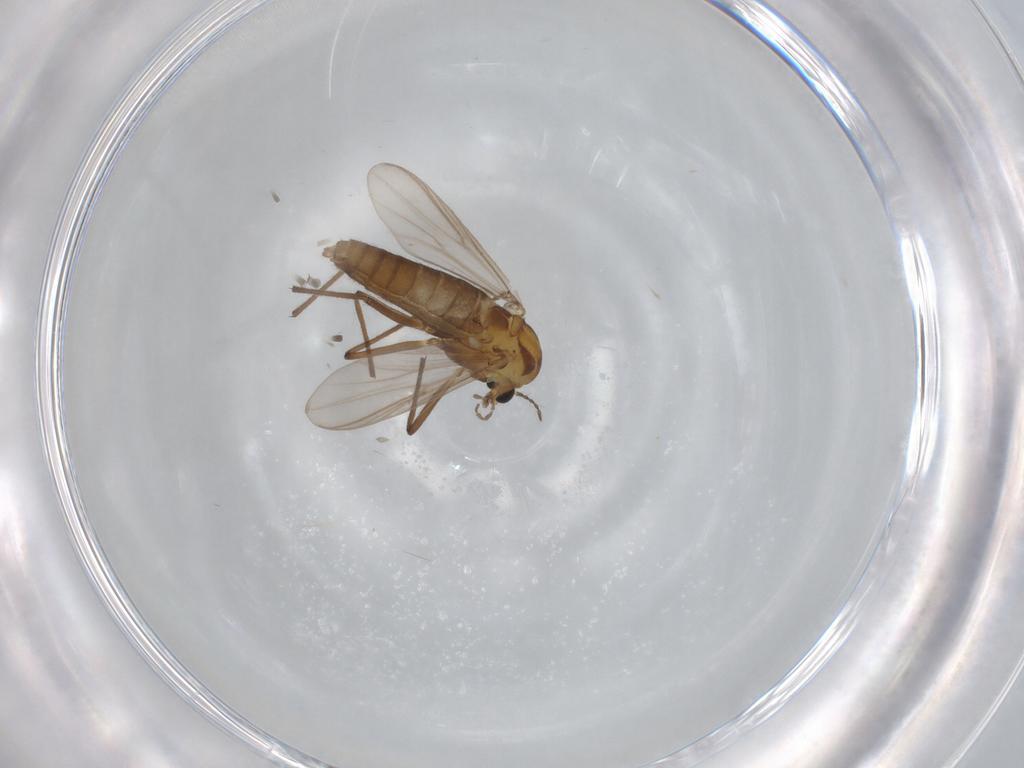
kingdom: Animalia
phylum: Arthropoda
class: Insecta
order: Diptera
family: Chironomidae
